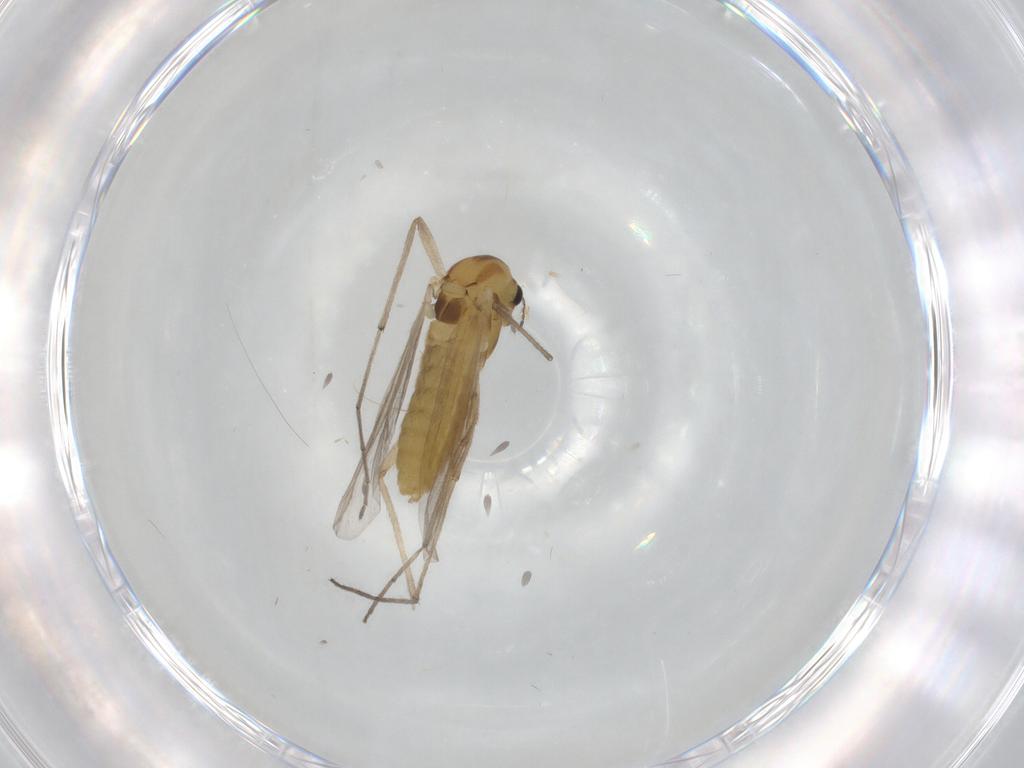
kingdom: Animalia
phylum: Arthropoda
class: Insecta
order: Diptera
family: Chironomidae
